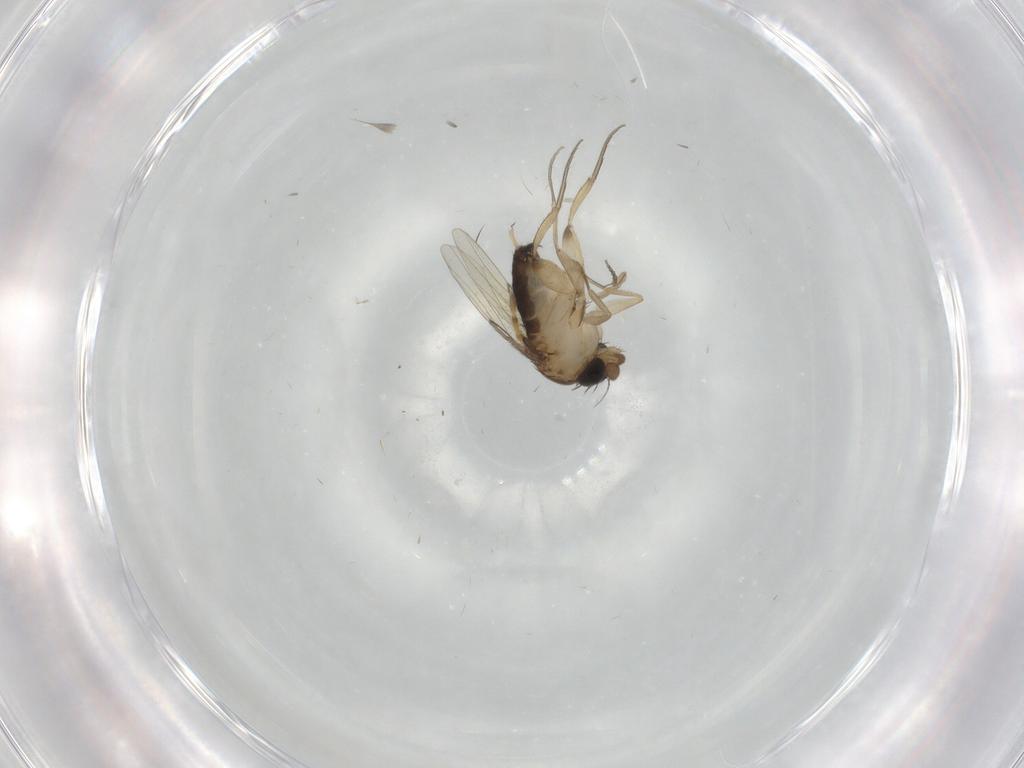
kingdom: Animalia
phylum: Arthropoda
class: Insecta
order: Diptera
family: Phoridae
